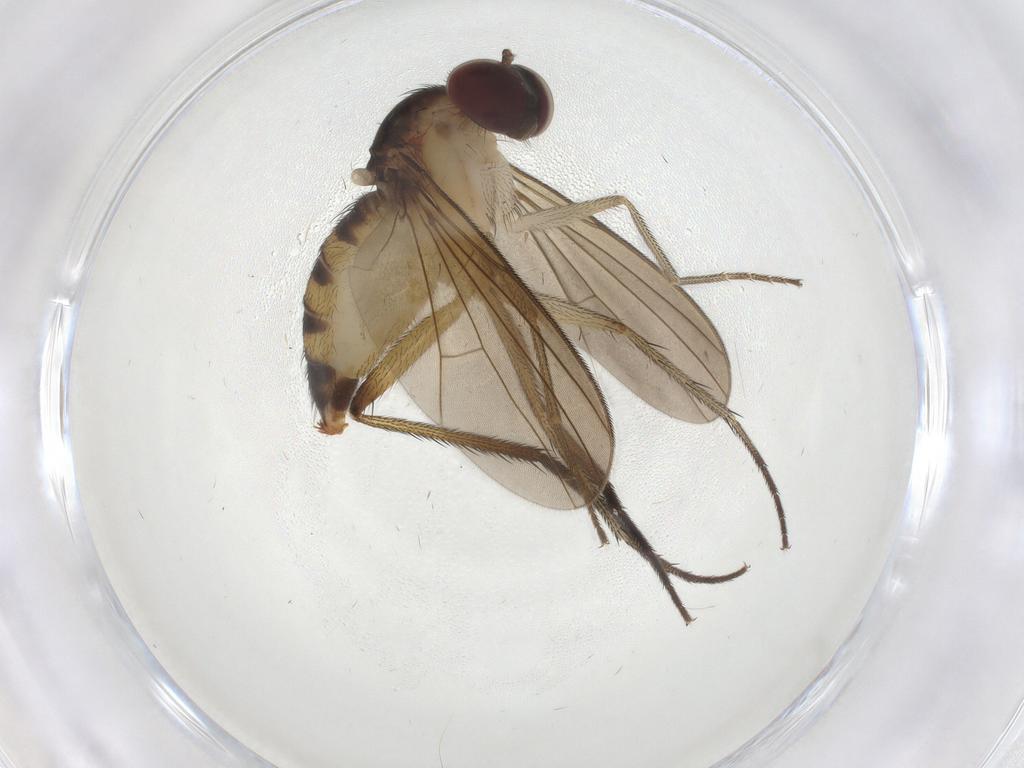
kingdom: Animalia
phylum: Arthropoda
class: Insecta
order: Diptera
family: Dolichopodidae
